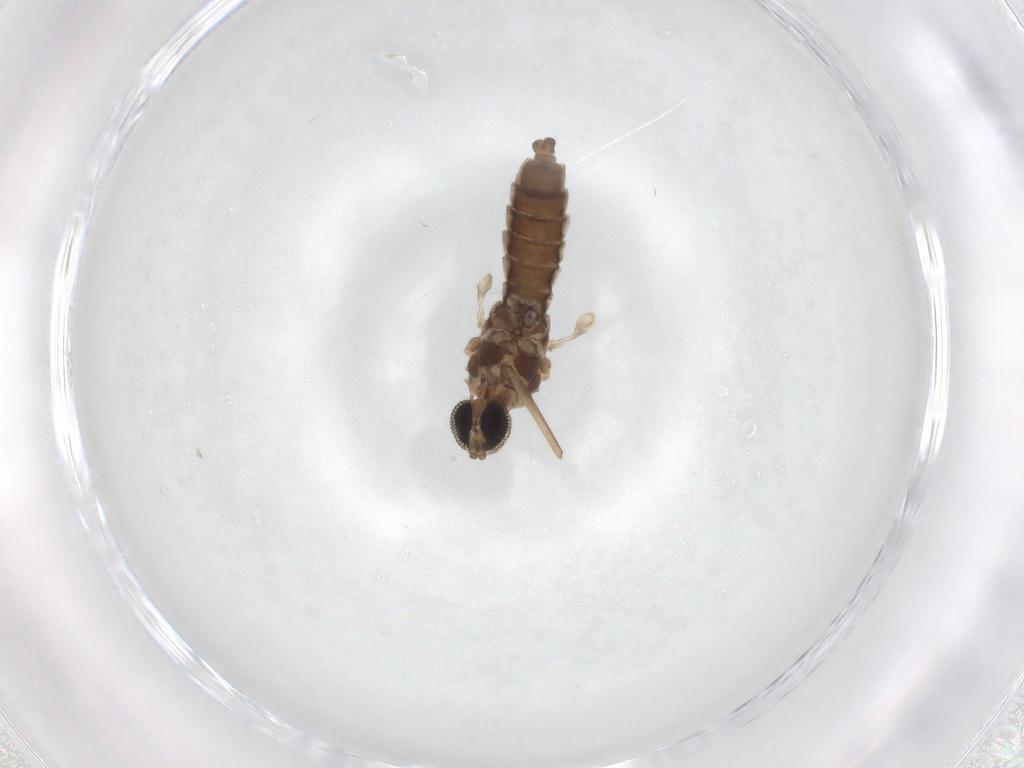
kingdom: Animalia
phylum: Arthropoda
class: Insecta
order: Diptera
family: Cecidomyiidae
